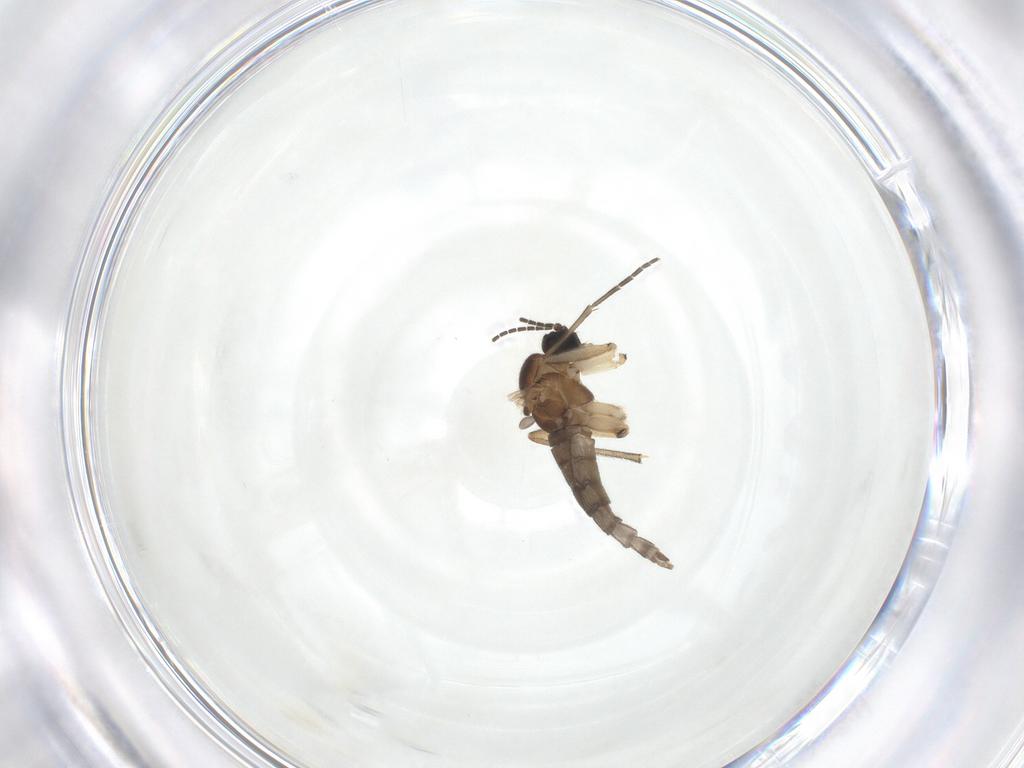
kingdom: Animalia
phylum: Arthropoda
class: Insecta
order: Diptera
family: Sciaridae
